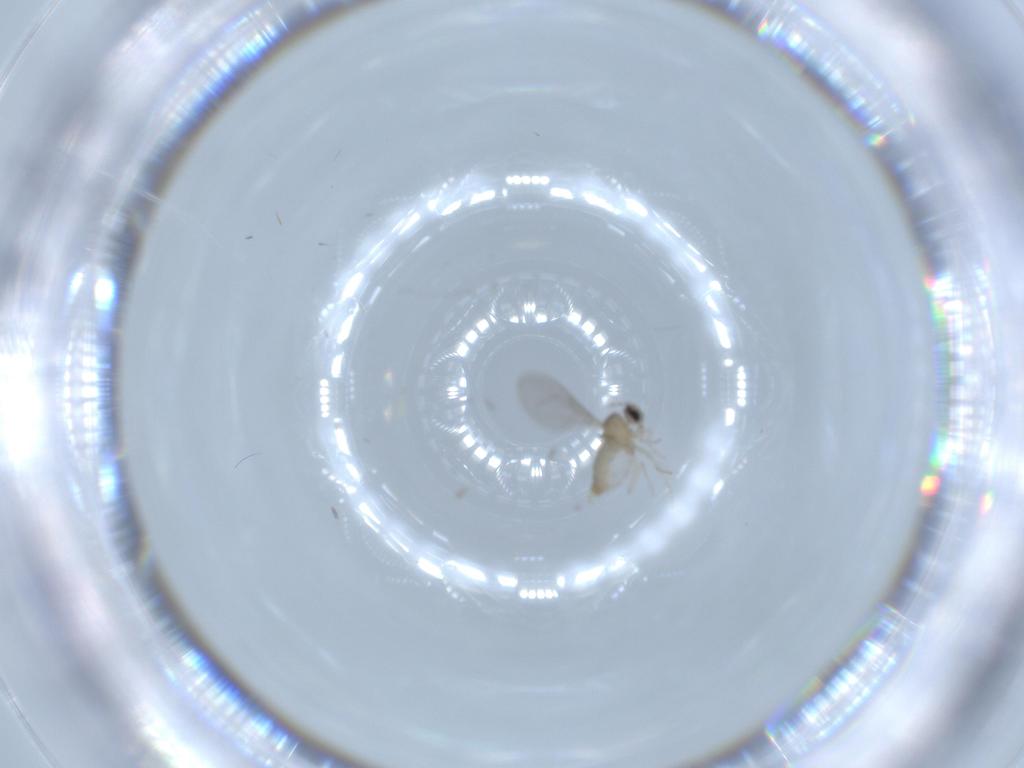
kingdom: Animalia
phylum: Arthropoda
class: Insecta
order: Diptera
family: Cecidomyiidae
